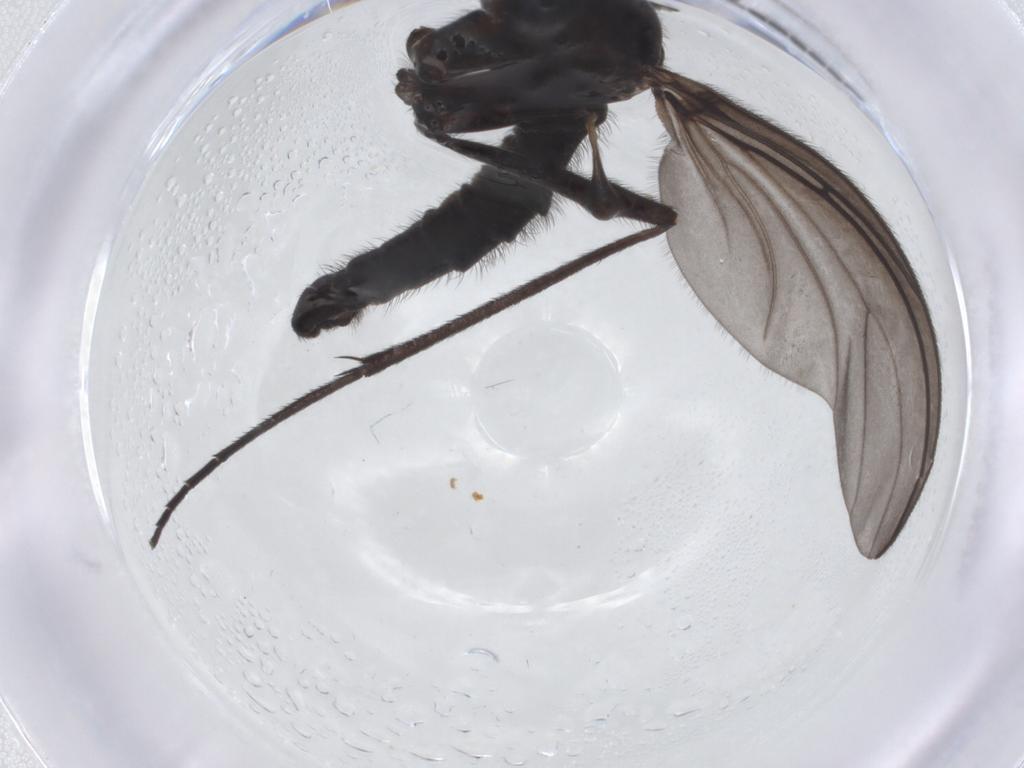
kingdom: Animalia
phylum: Arthropoda
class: Insecta
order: Diptera
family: Sciaridae
